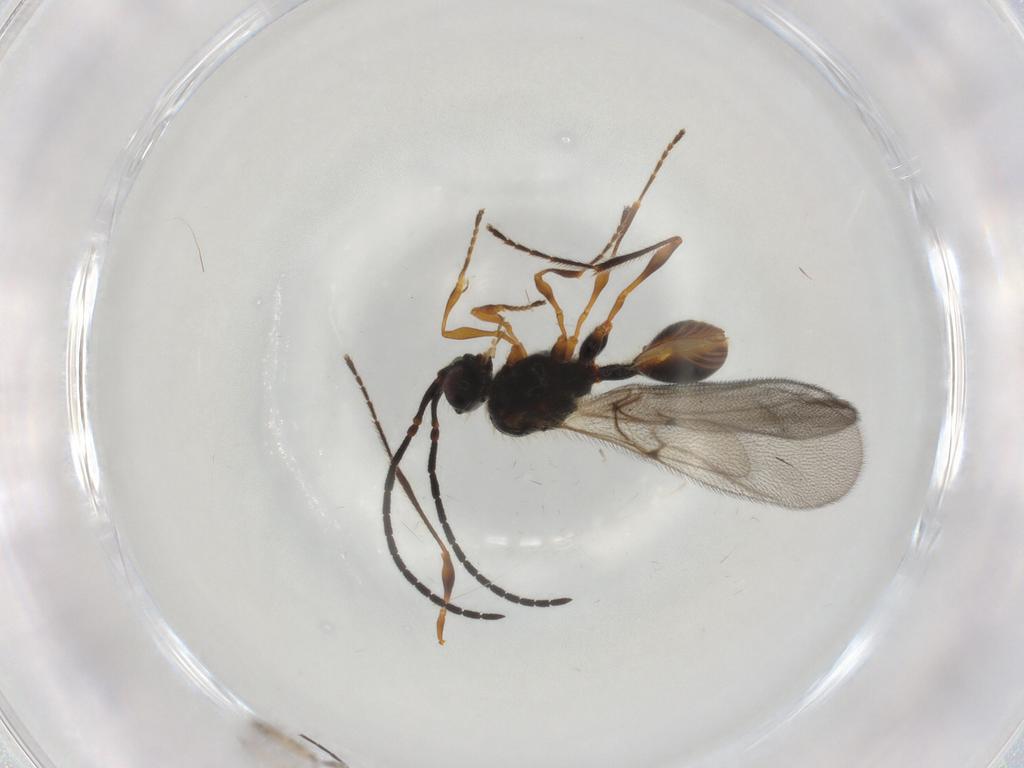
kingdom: Animalia
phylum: Arthropoda
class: Insecta
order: Hymenoptera
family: Diapriidae
